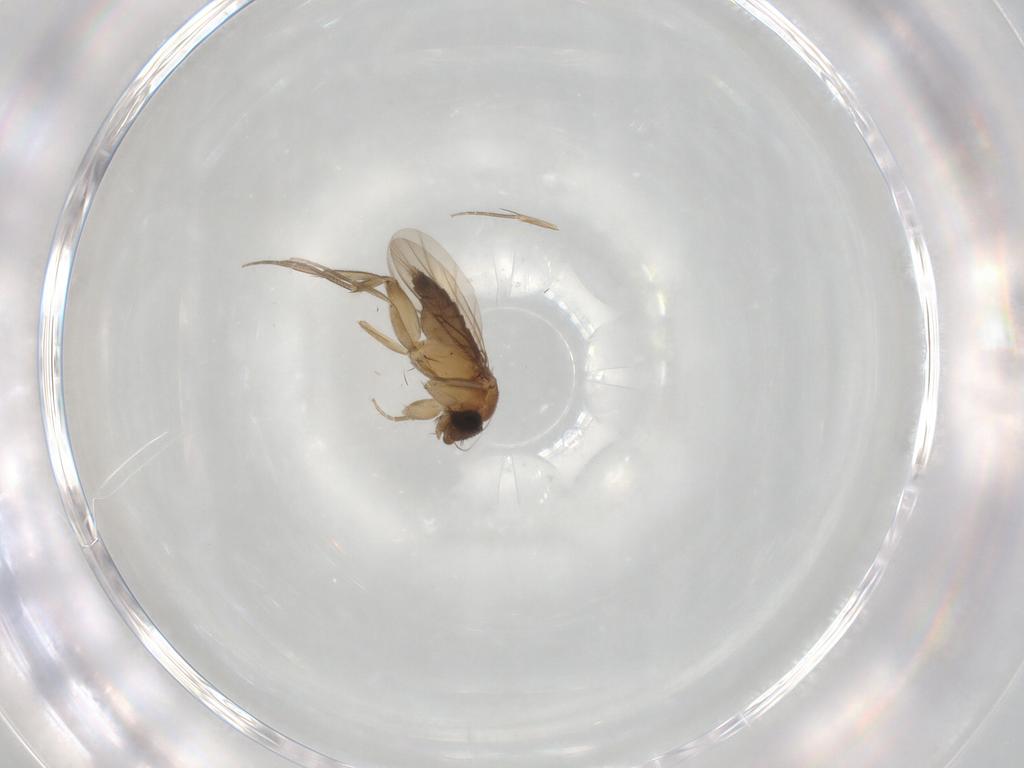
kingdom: Animalia
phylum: Arthropoda
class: Insecta
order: Diptera
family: Phoridae
